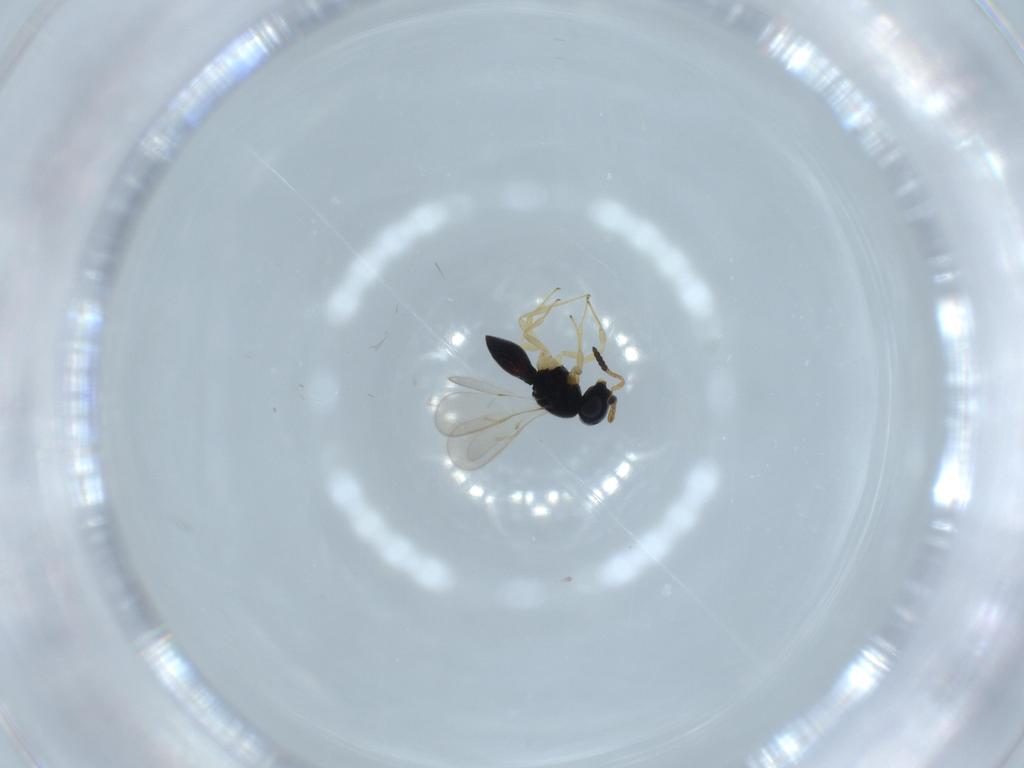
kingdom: Animalia
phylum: Arthropoda
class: Insecta
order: Hymenoptera
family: Scelionidae
